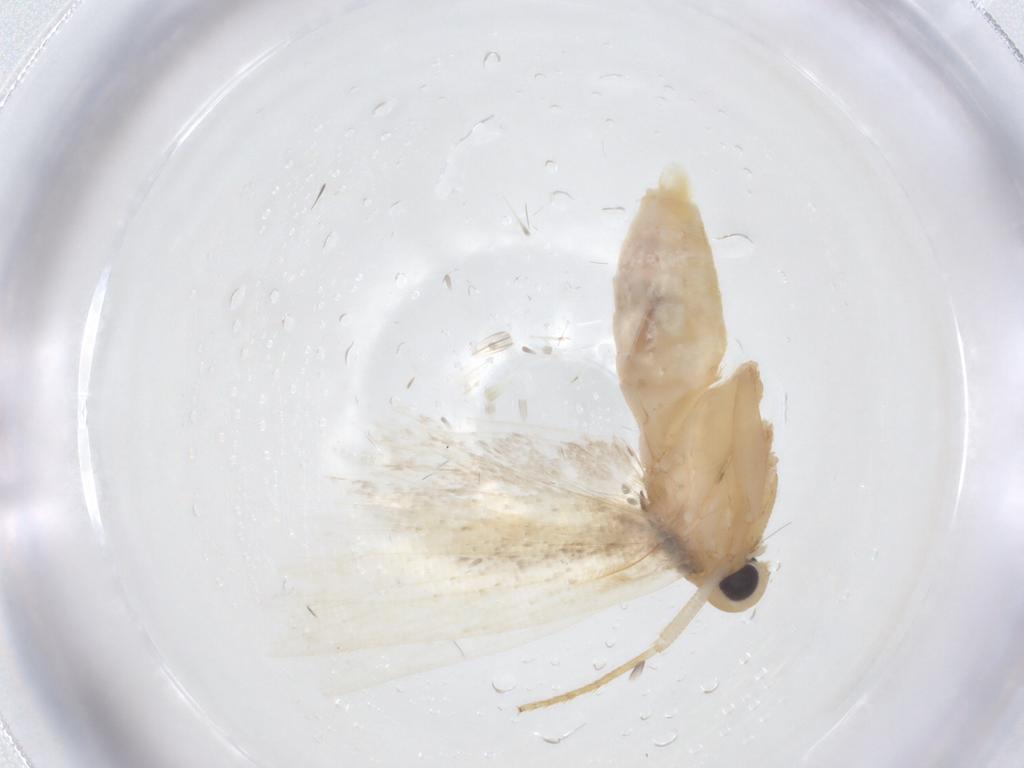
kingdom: Animalia
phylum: Arthropoda
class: Insecta
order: Lepidoptera
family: Gelechiidae
